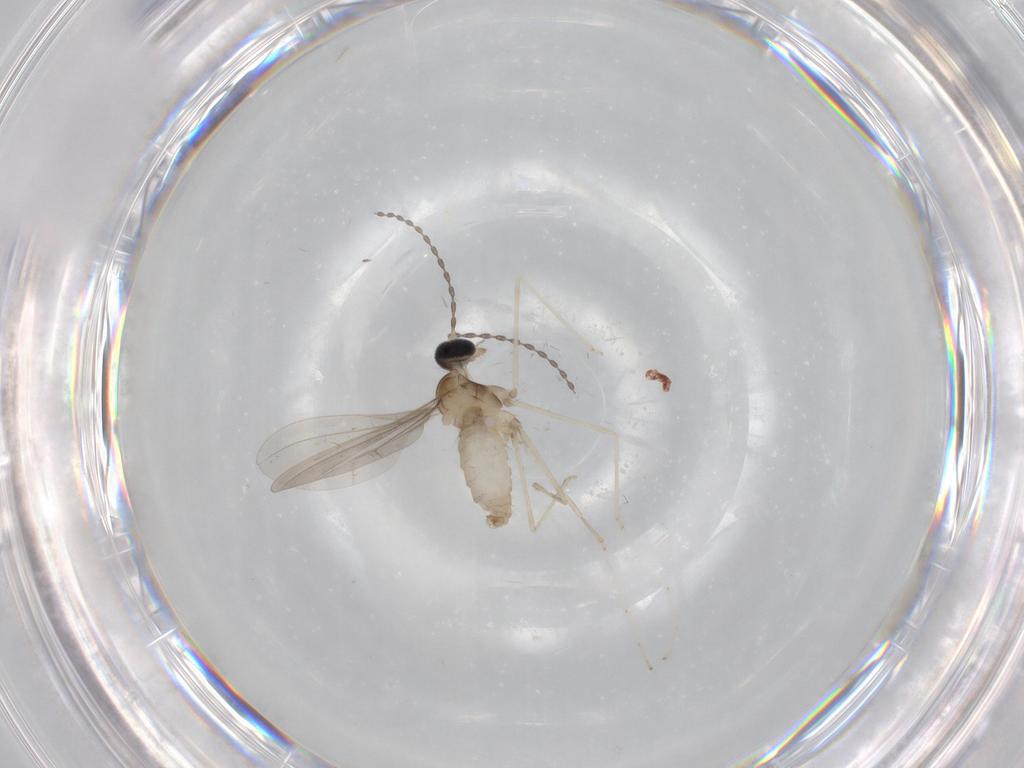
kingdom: Animalia
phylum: Arthropoda
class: Insecta
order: Diptera
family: Cecidomyiidae
